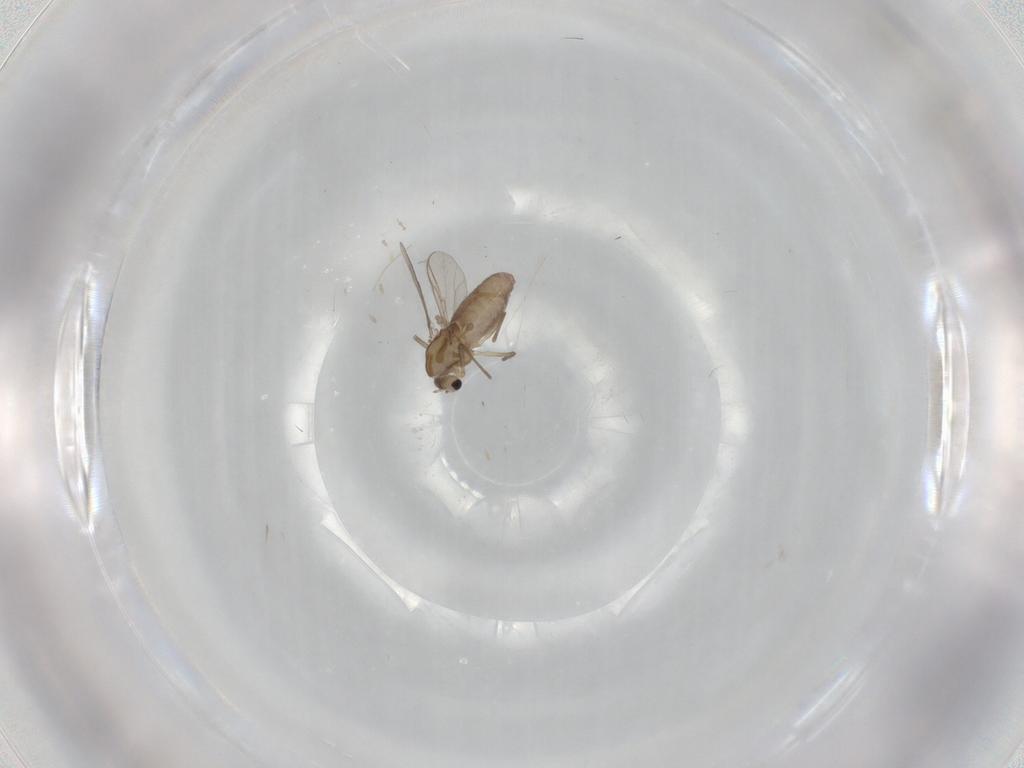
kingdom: Animalia
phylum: Arthropoda
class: Insecta
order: Diptera
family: Chironomidae
